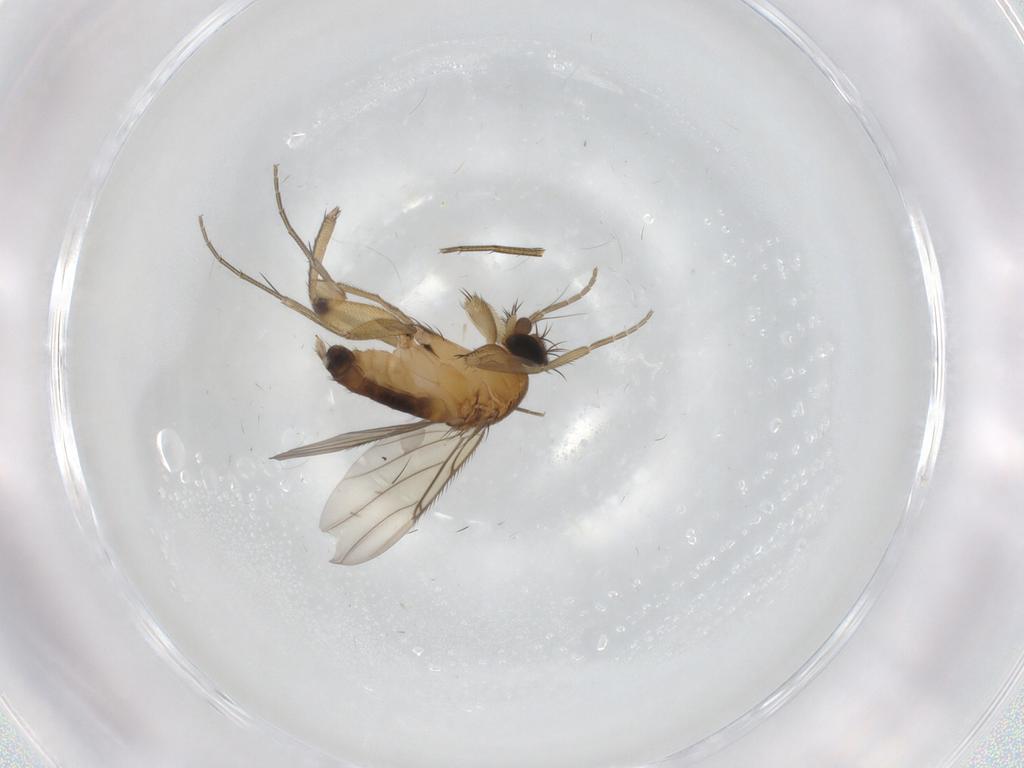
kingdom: Animalia
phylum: Arthropoda
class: Insecta
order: Diptera
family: Phoridae
